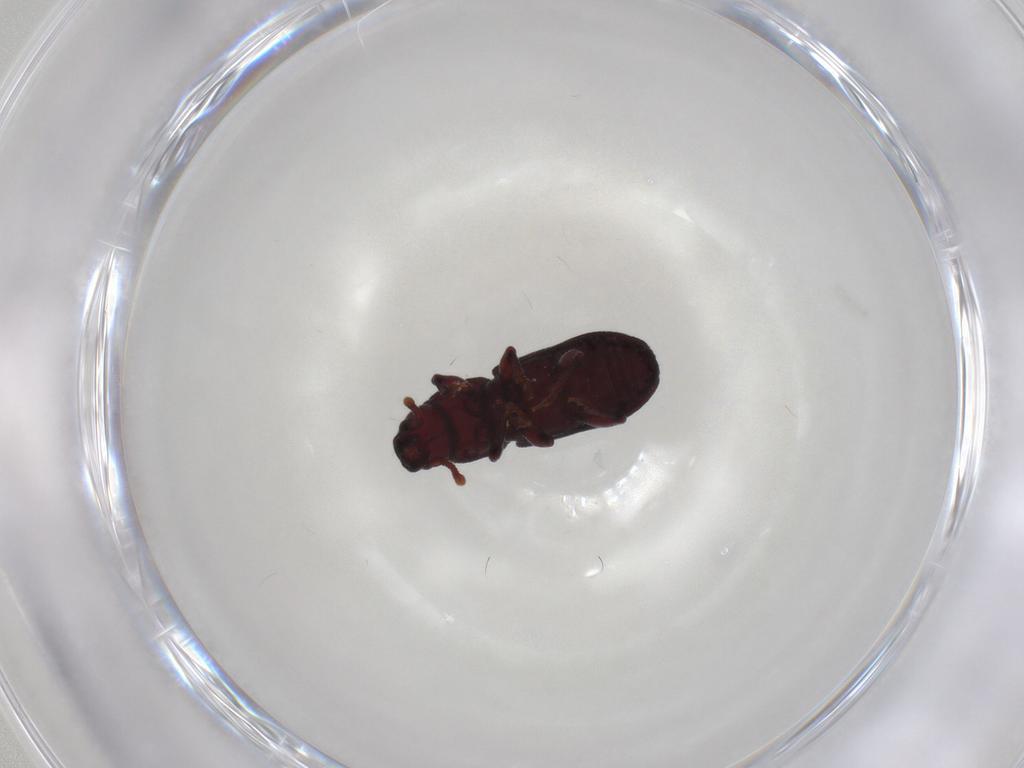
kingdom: Animalia
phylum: Arthropoda
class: Insecta
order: Coleoptera
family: Curculionidae
